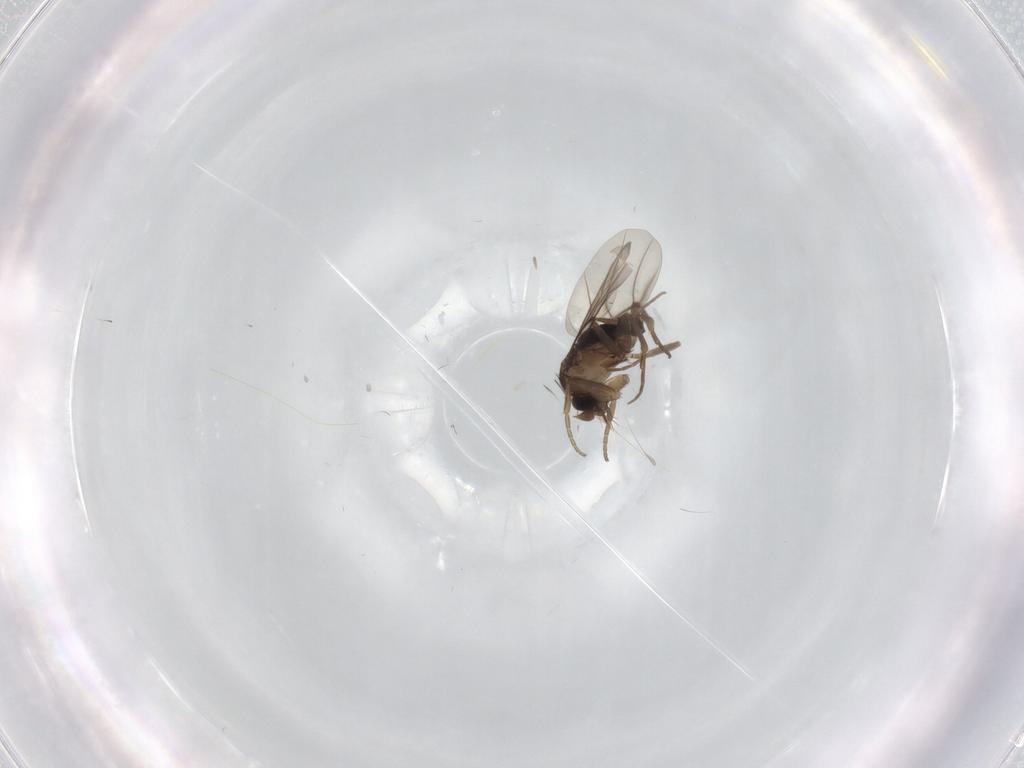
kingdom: Animalia
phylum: Arthropoda
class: Insecta
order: Diptera
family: Phoridae
